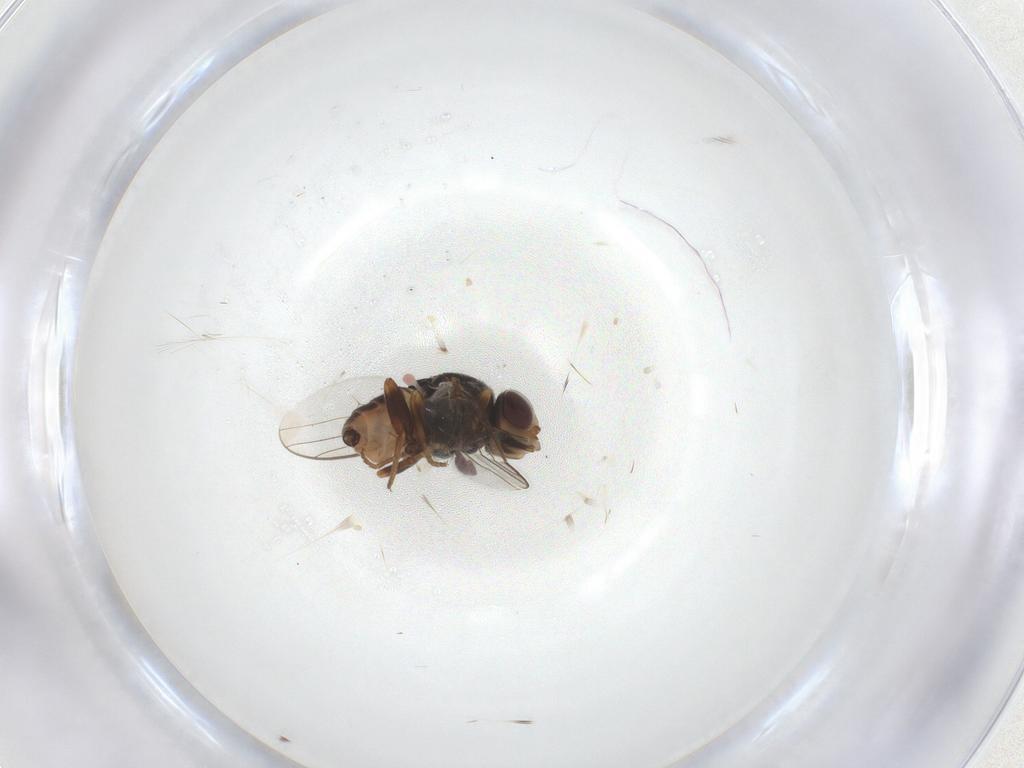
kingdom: Animalia
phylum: Arthropoda
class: Insecta
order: Diptera
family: Chloropidae
